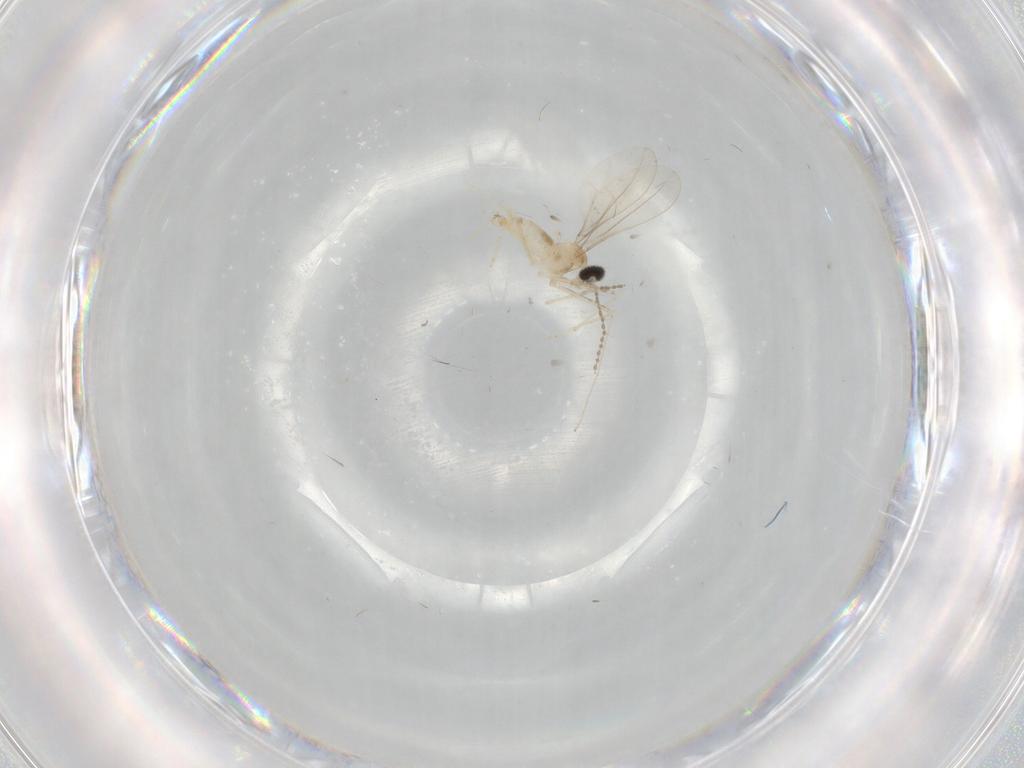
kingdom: Animalia
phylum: Arthropoda
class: Insecta
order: Diptera
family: Cecidomyiidae
